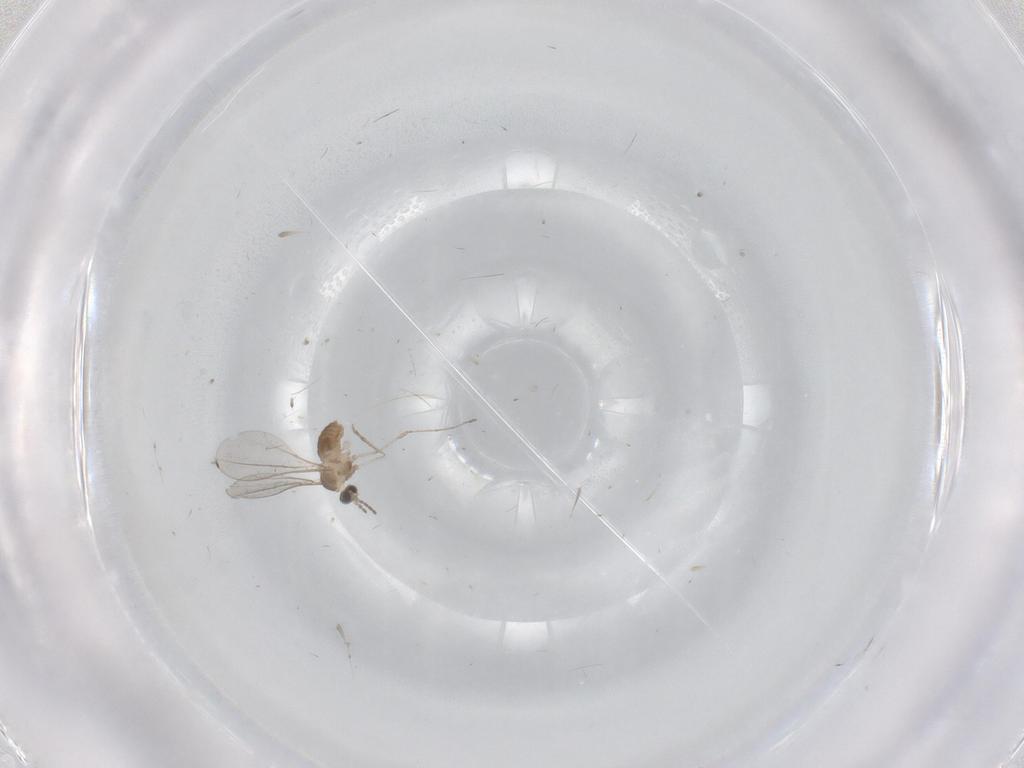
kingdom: Animalia
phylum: Arthropoda
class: Insecta
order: Diptera
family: Cecidomyiidae
